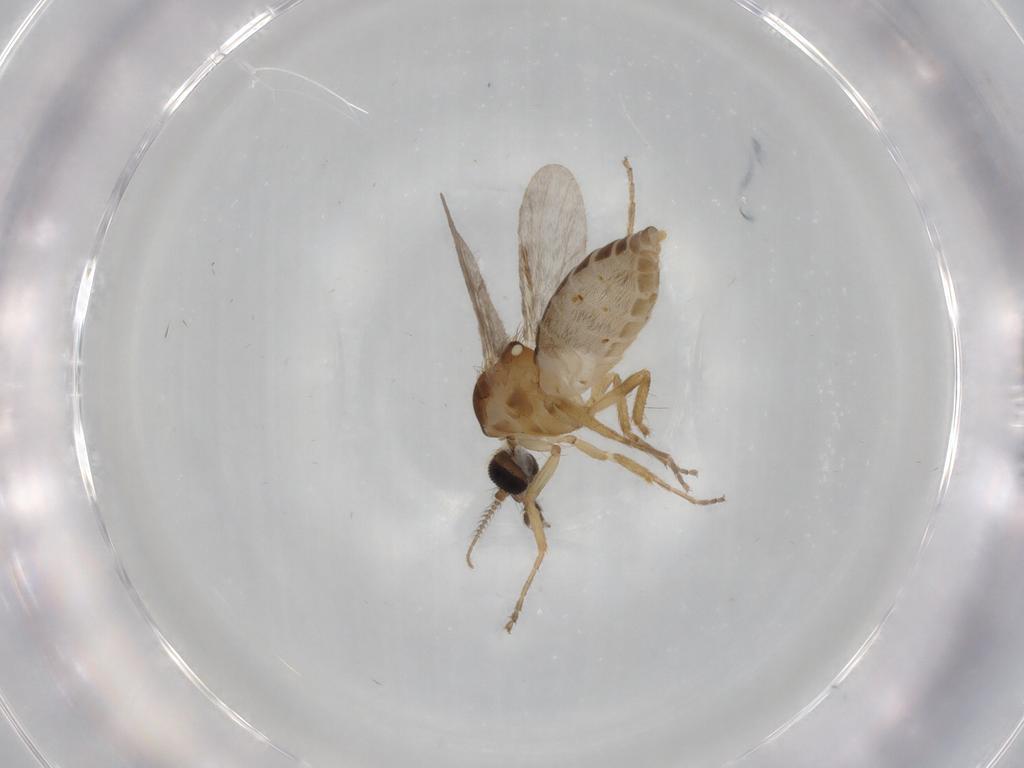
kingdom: Animalia
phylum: Arthropoda
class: Insecta
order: Diptera
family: Ceratopogonidae
